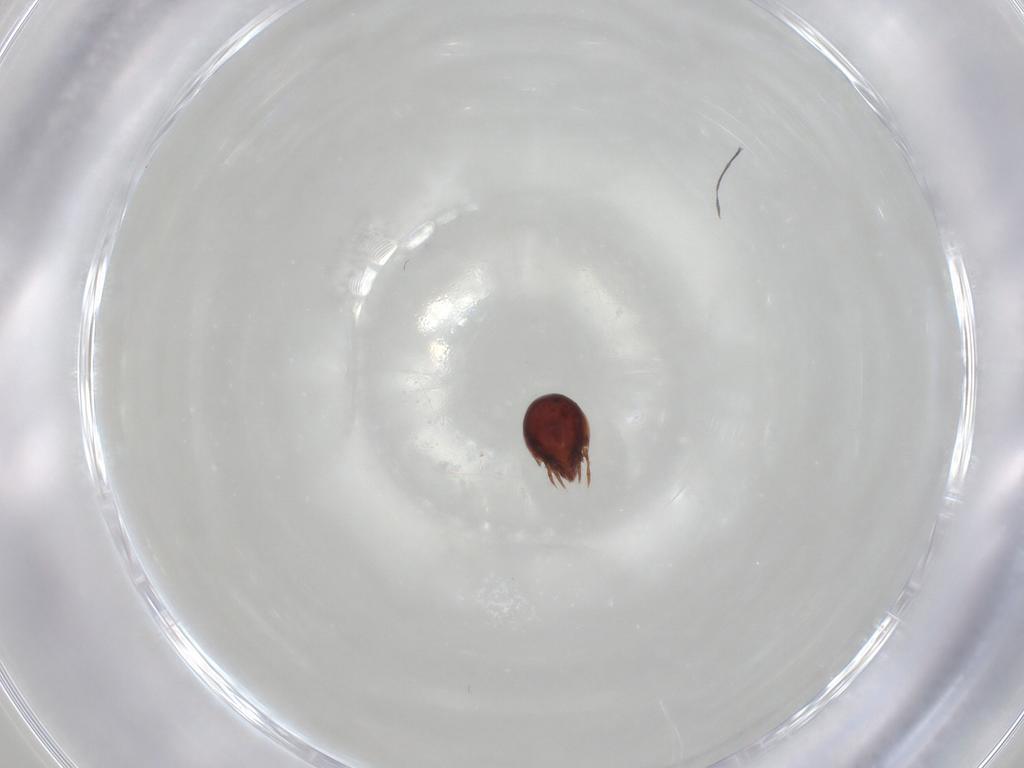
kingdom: Animalia
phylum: Arthropoda
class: Arachnida
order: Sarcoptiformes
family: Ceratozetidae
